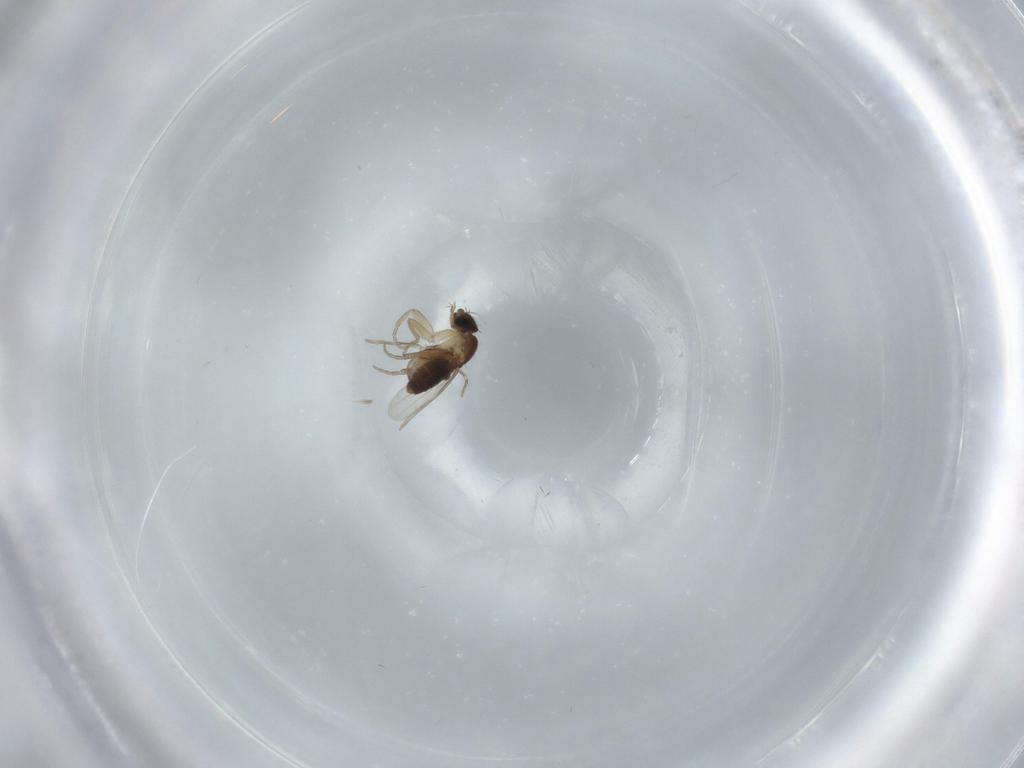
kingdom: Animalia
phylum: Arthropoda
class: Insecta
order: Diptera
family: Phoridae
